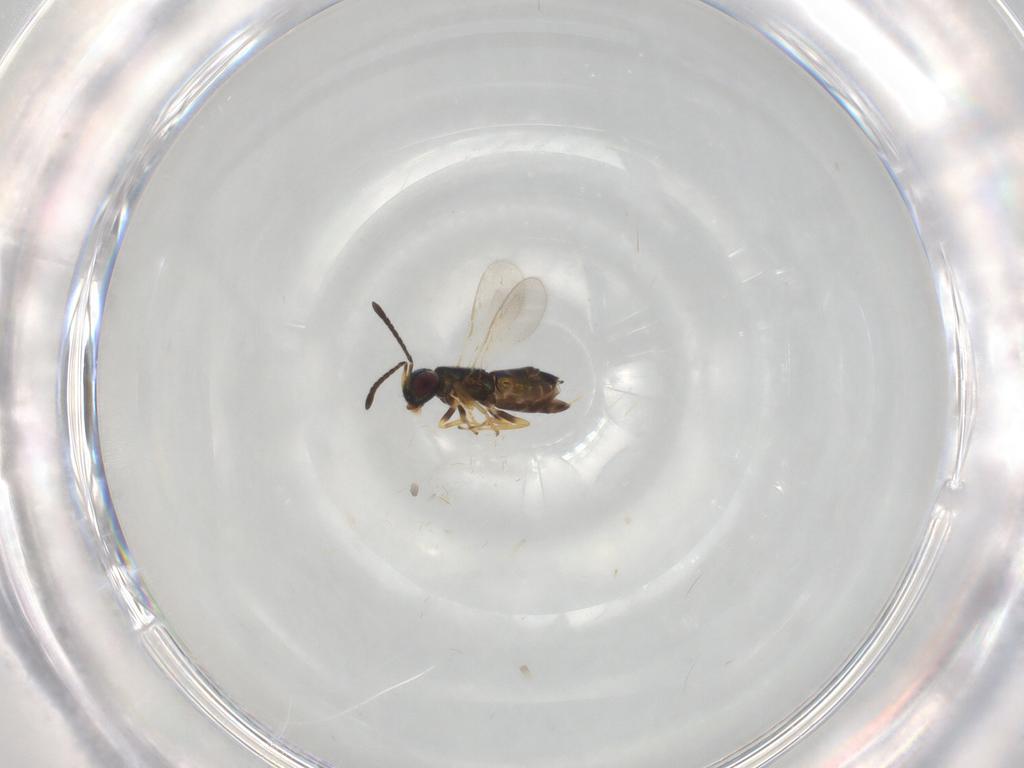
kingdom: Animalia
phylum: Arthropoda
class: Insecta
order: Hymenoptera
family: Encyrtidae
